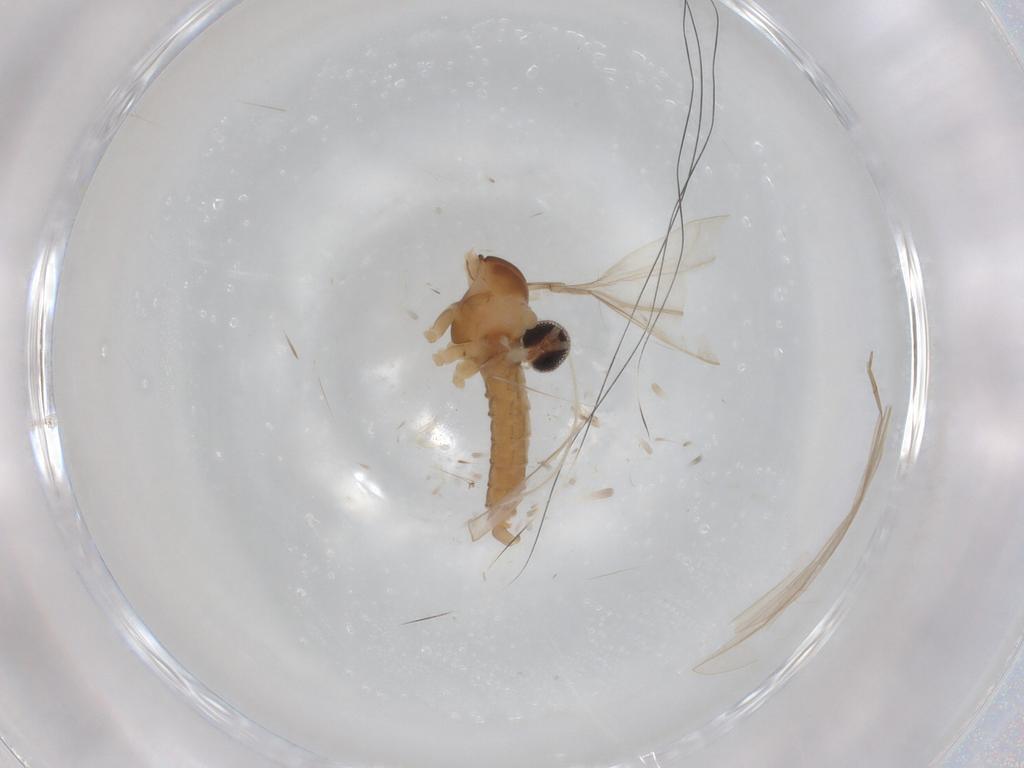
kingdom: Animalia
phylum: Arthropoda
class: Insecta
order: Diptera
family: Cecidomyiidae
